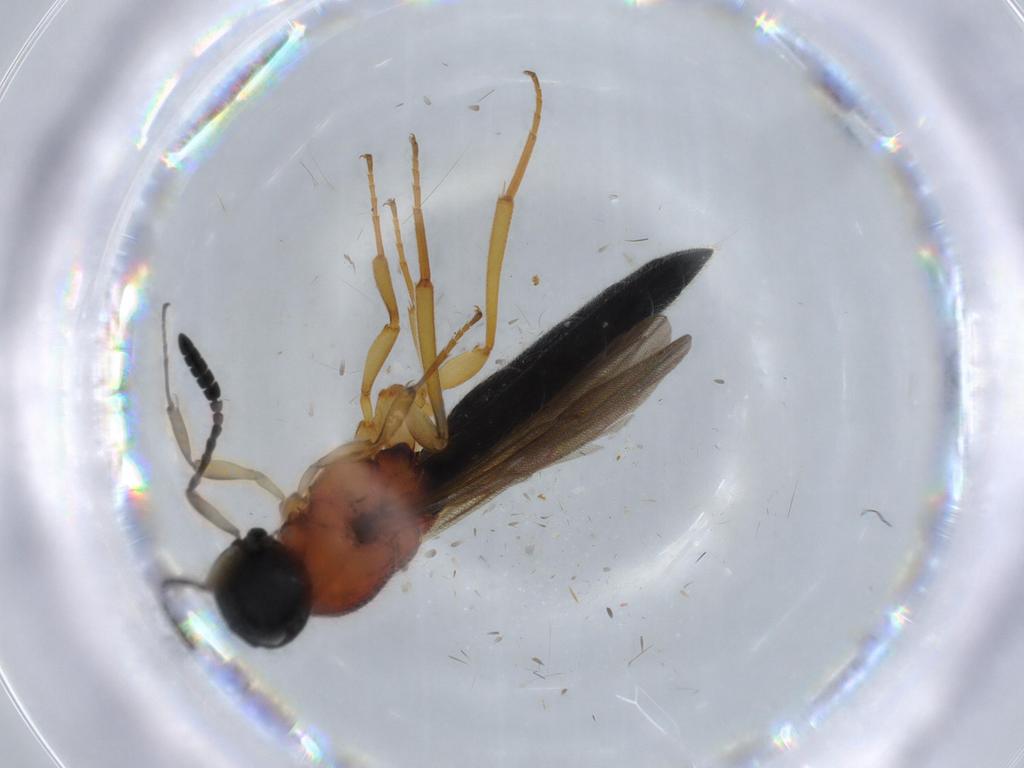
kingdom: Animalia
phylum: Arthropoda
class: Insecta
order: Hymenoptera
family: Scelionidae
